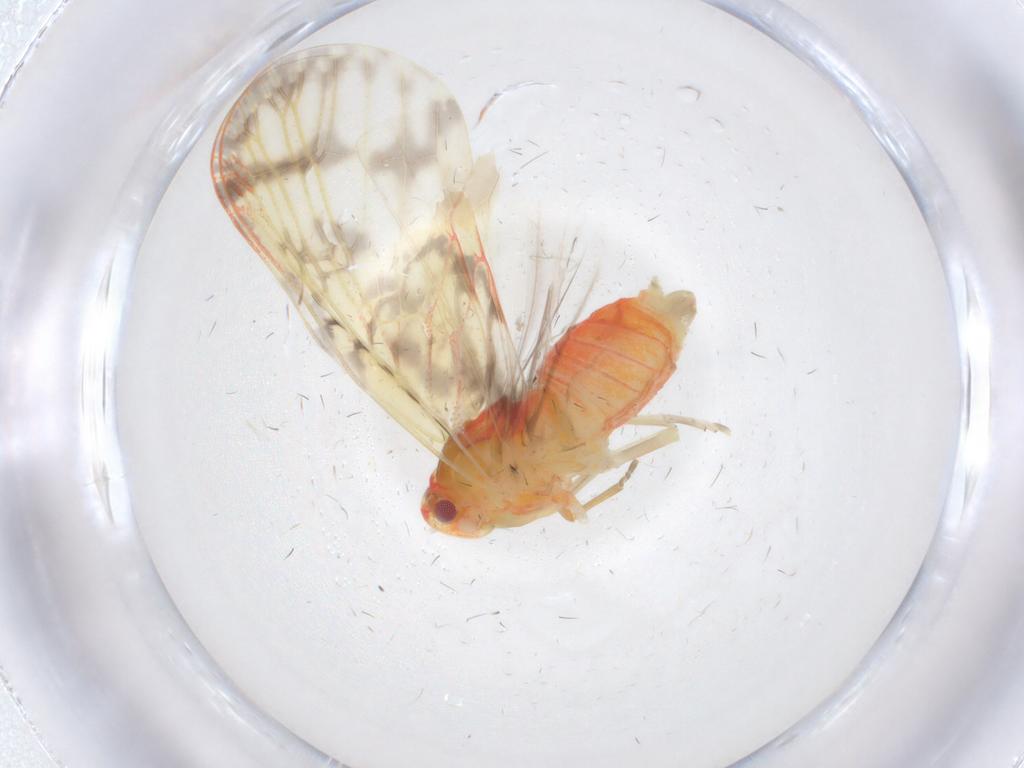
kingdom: Animalia
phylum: Arthropoda
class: Insecta
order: Hemiptera
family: Derbidae
